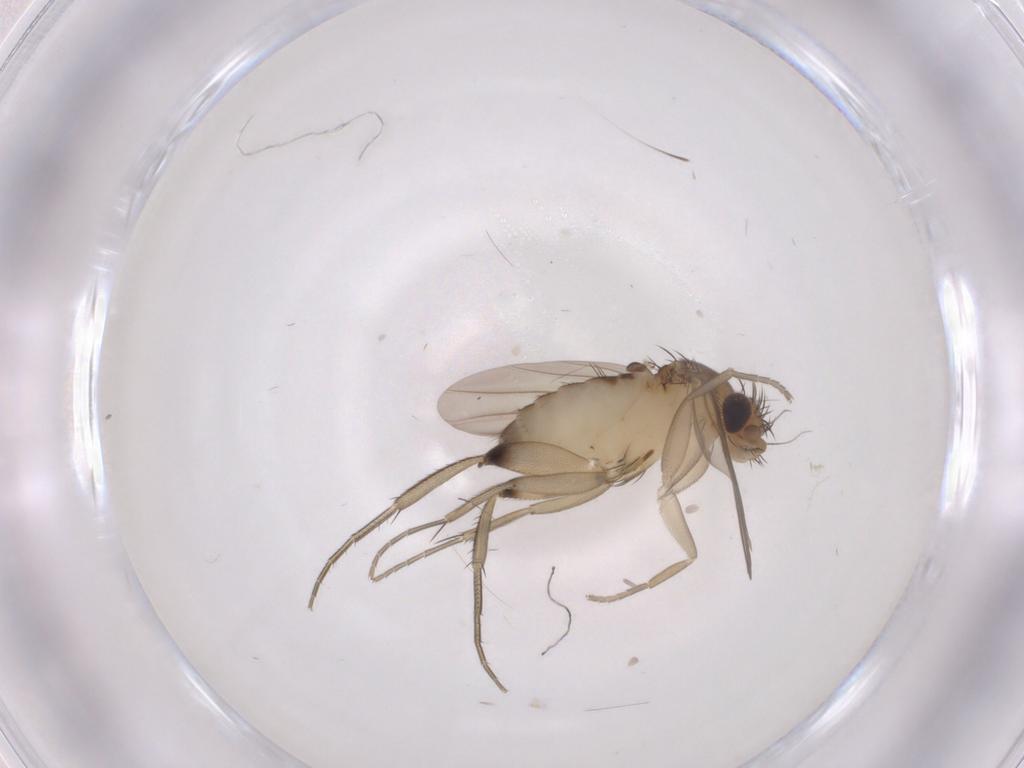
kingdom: Animalia
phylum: Arthropoda
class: Insecta
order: Diptera
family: Phoridae
